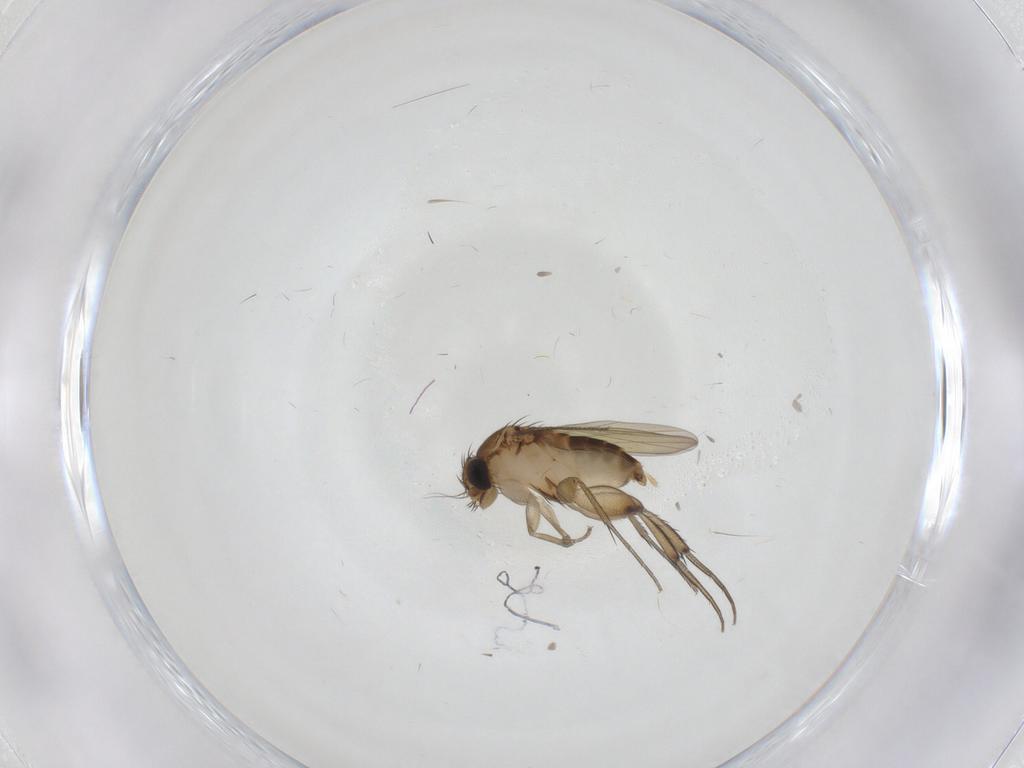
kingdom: Animalia
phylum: Arthropoda
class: Insecta
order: Diptera
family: Phoridae
